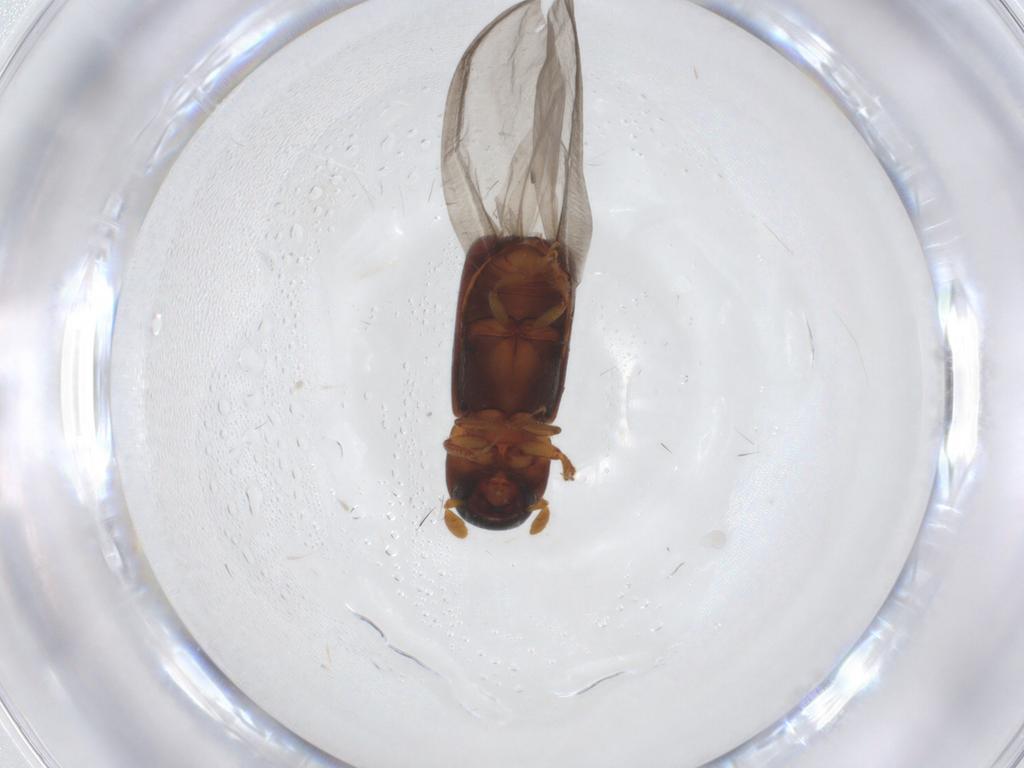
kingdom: Animalia
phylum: Arthropoda
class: Insecta
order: Coleoptera
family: Curculionidae
